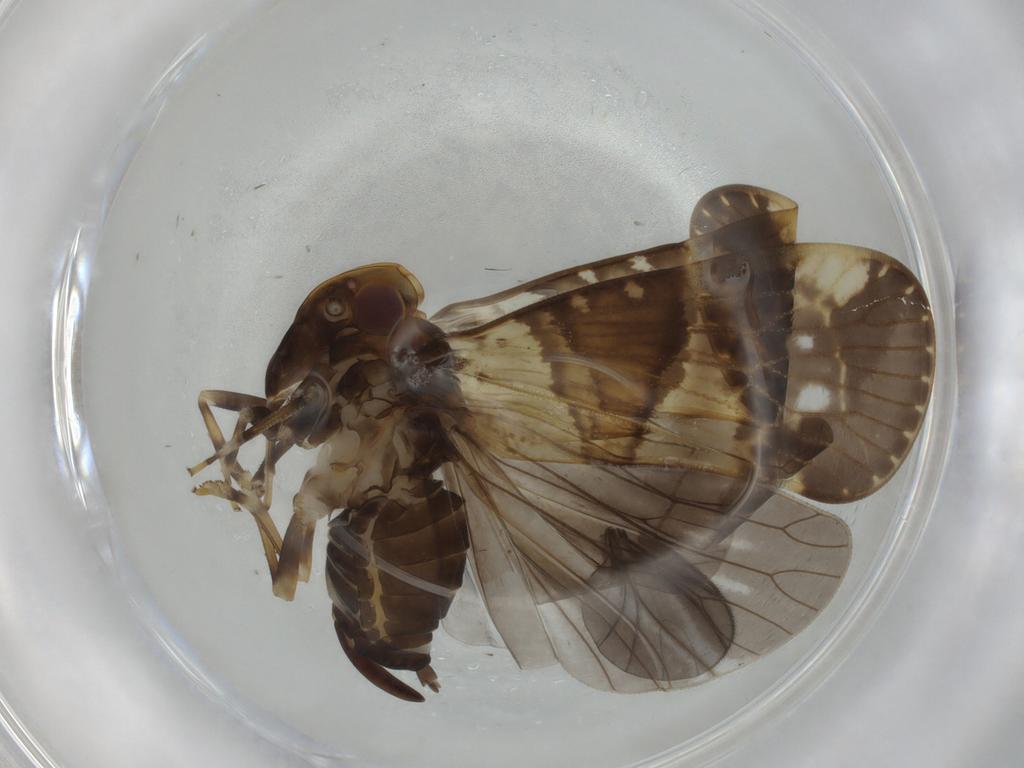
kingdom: Animalia
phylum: Arthropoda
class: Insecta
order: Hemiptera
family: Cixiidae
